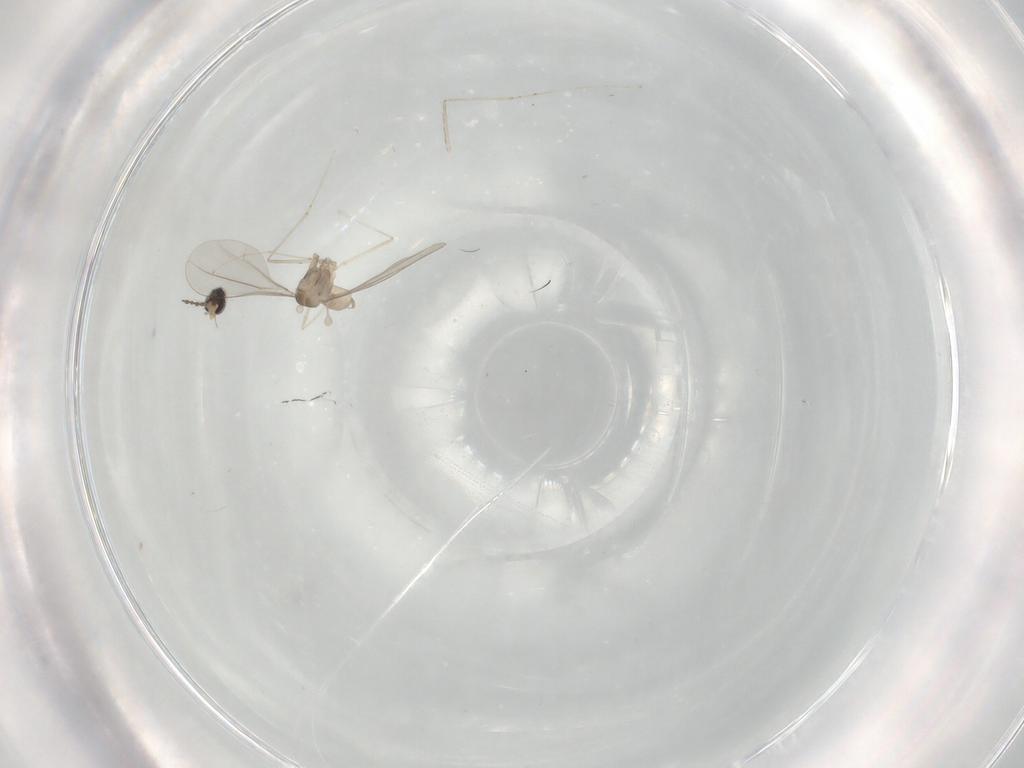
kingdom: Animalia
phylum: Arthropoda
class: Insecta
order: Diptera
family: Cecidomyiidae
